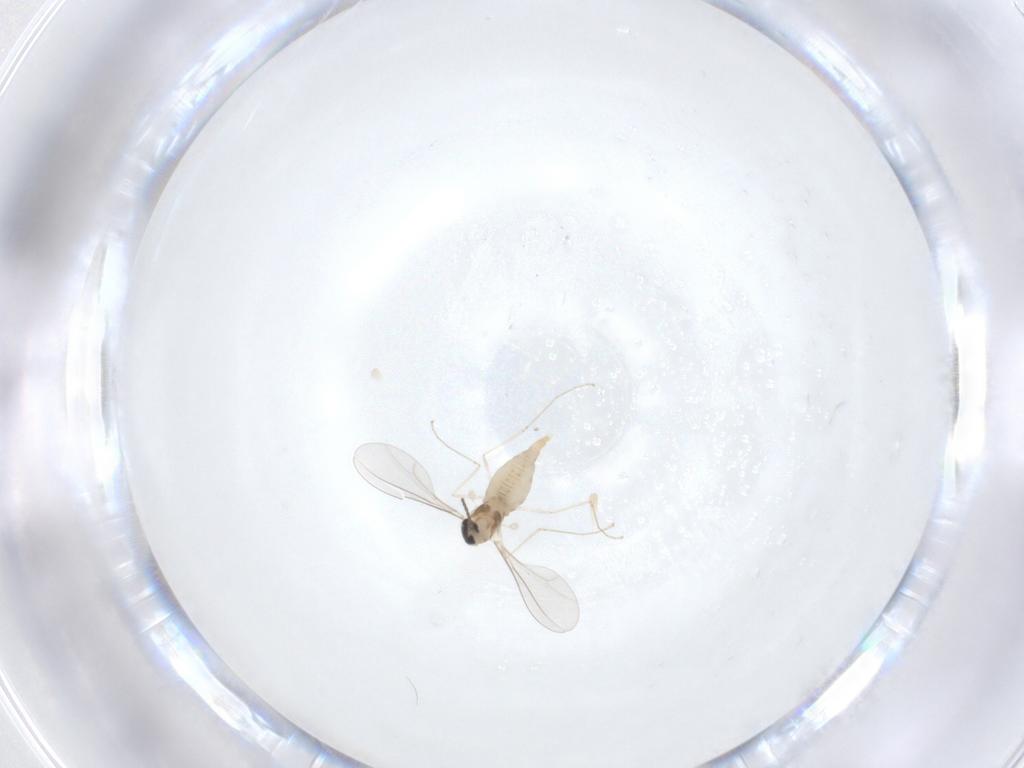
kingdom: Animalia
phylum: Arthropoda
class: Insecta
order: Diptera
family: Cecidomyiidae
